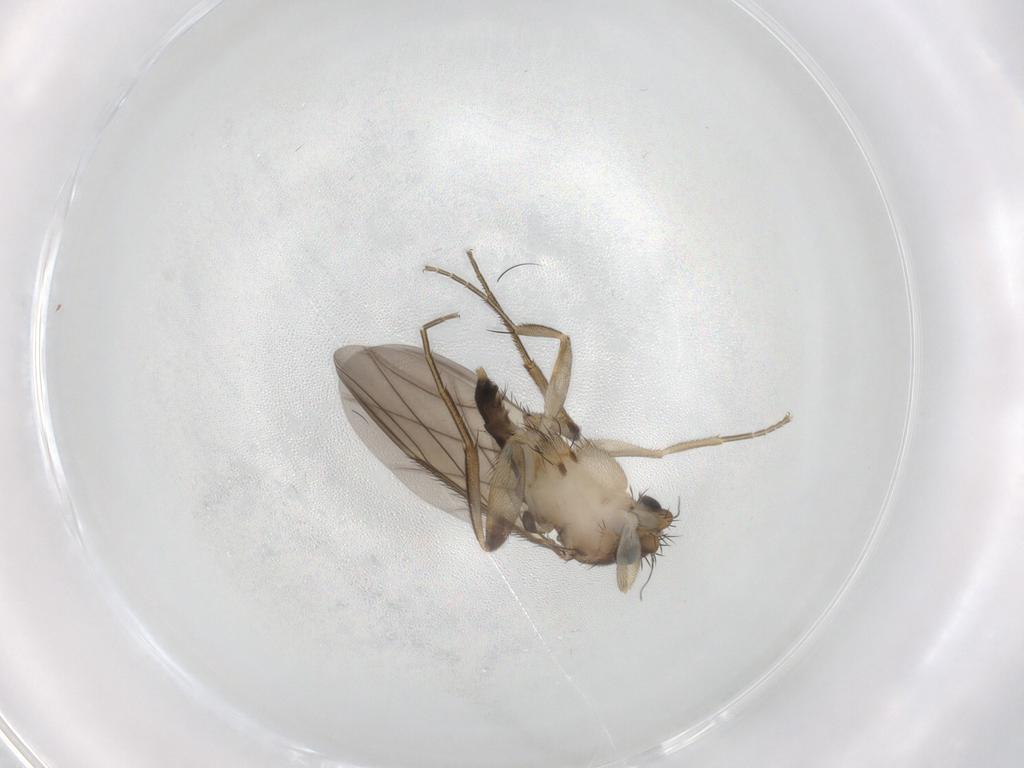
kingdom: Animalia
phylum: Arthropoda
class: Insecta
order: Diptera
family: Phoridae
